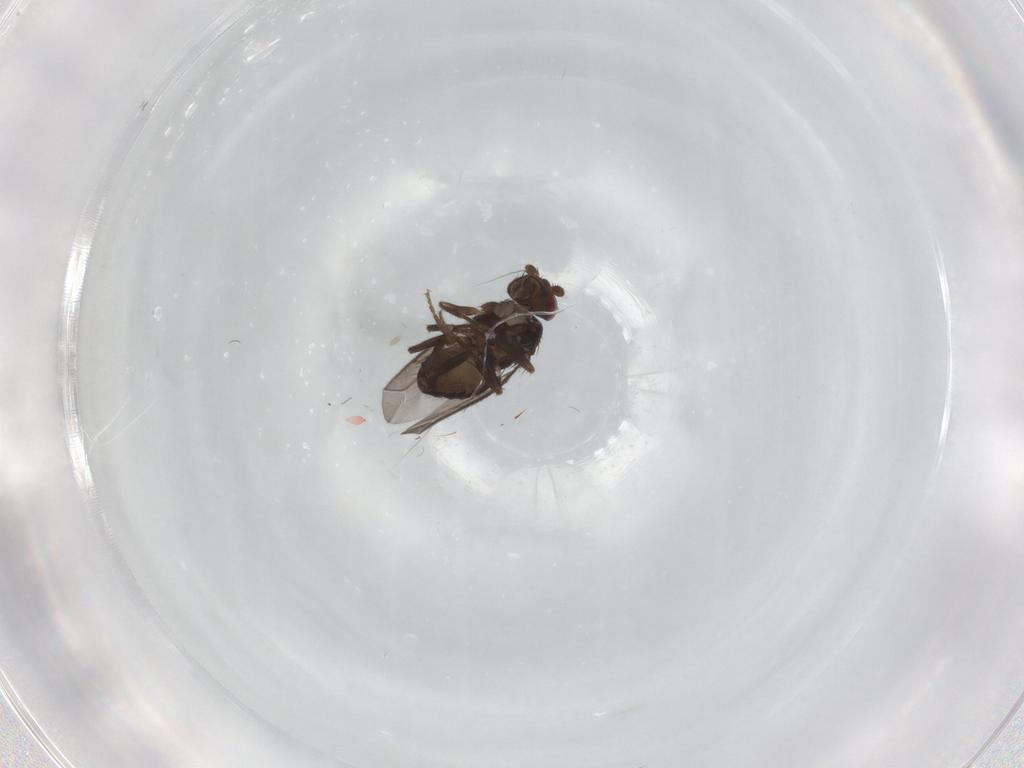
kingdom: Animalia
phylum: Arthropoda
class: Insecta
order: Diptera
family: Sphaeroceridae
